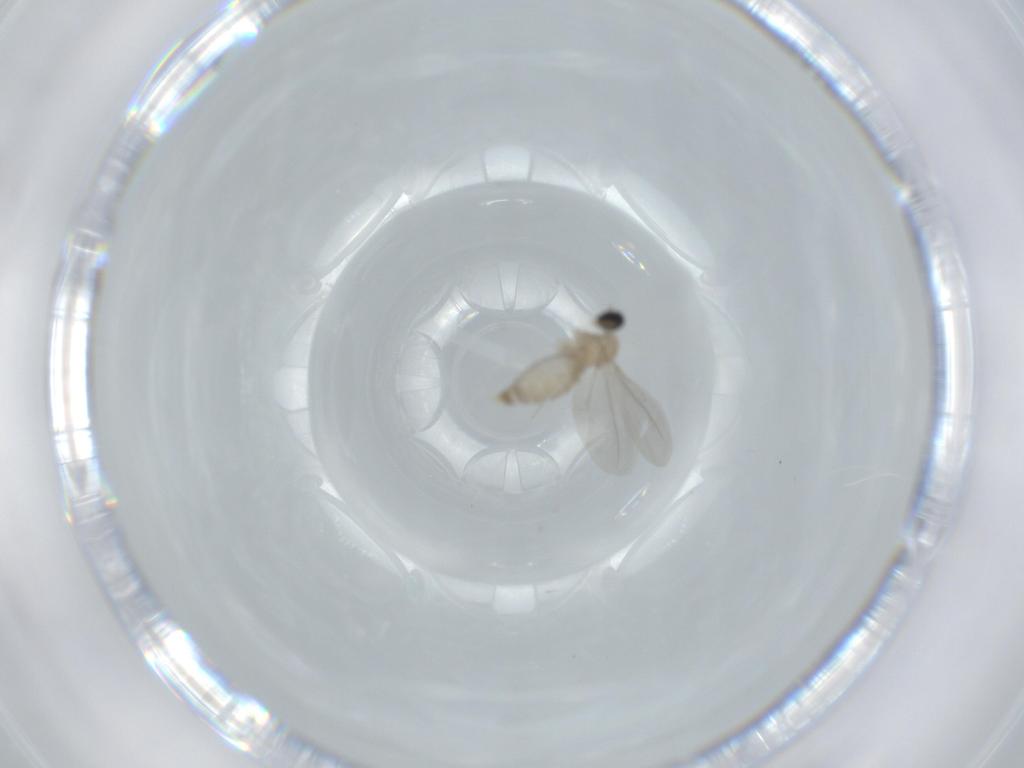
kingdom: Animalia
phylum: Arthropoda
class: Insecta
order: Diptera
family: Cecidomyiidae
